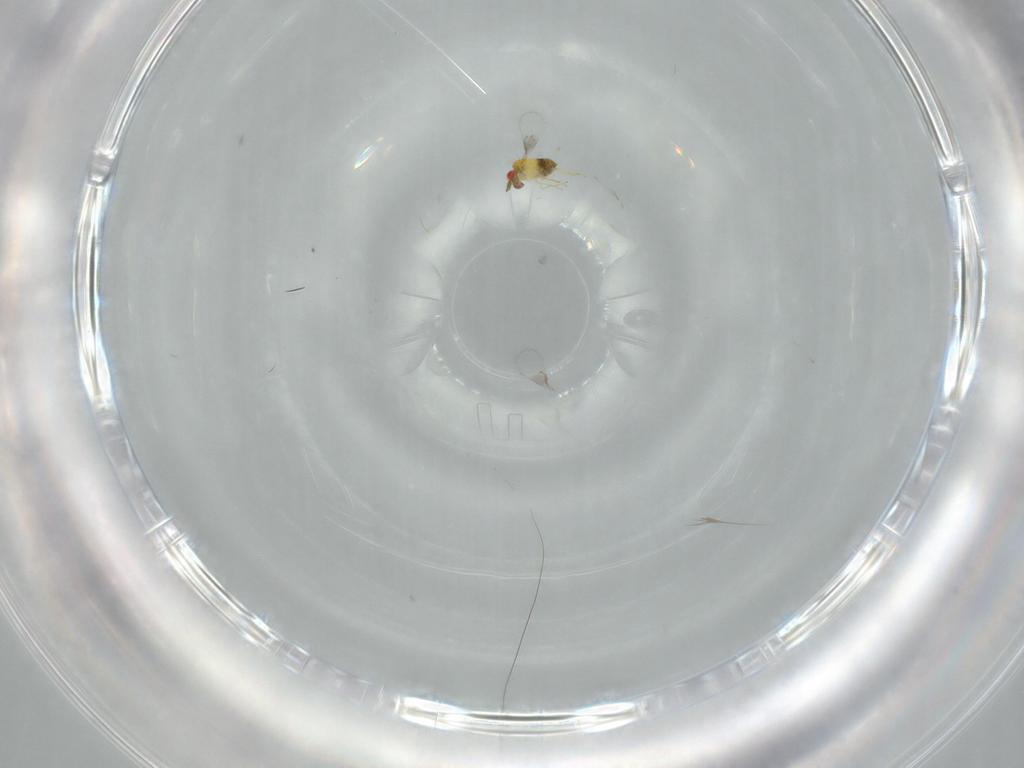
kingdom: Animalia
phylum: Arthropoda
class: Insecta
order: Hymenoptera
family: Trichogrammatidae
